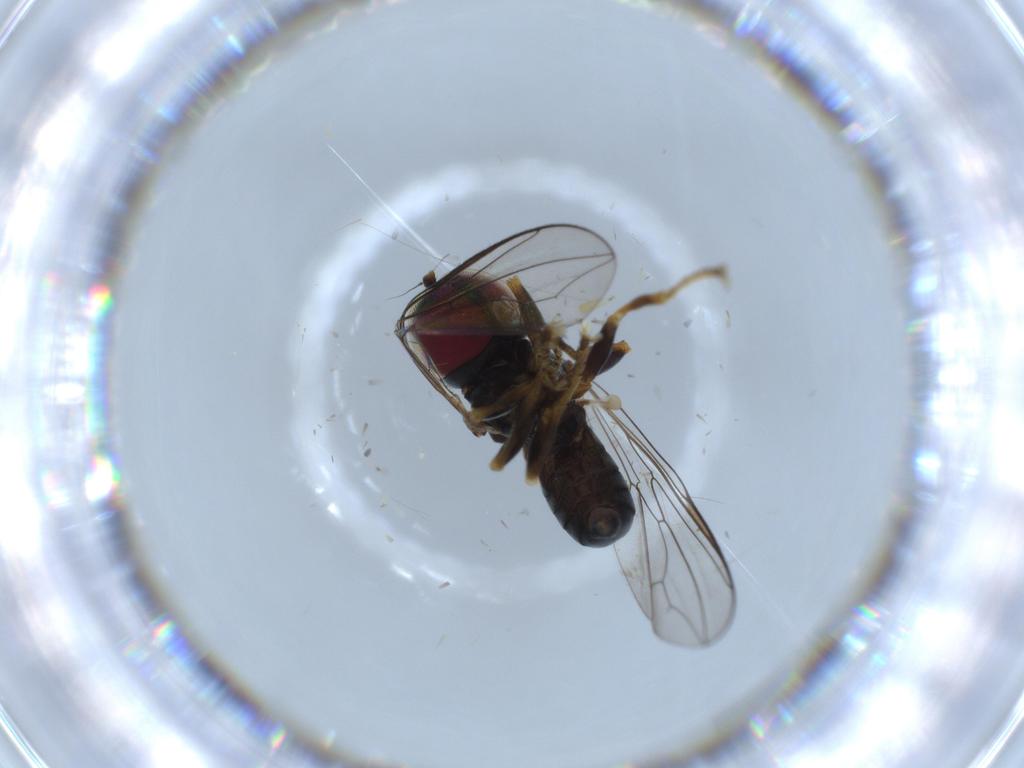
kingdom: Animalia
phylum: Arthropoda
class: Insecta
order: Diptera
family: Pipunculidae
